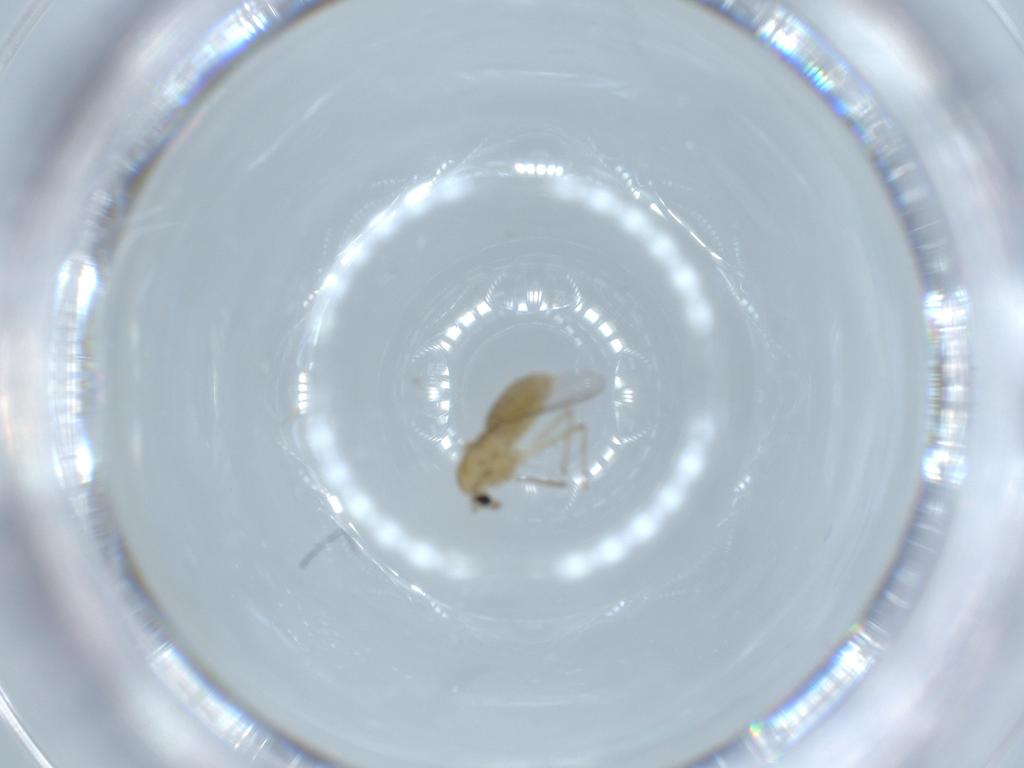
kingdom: Animalia
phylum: Arthropoda
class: Insecta
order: Diptera
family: Chironomidae
